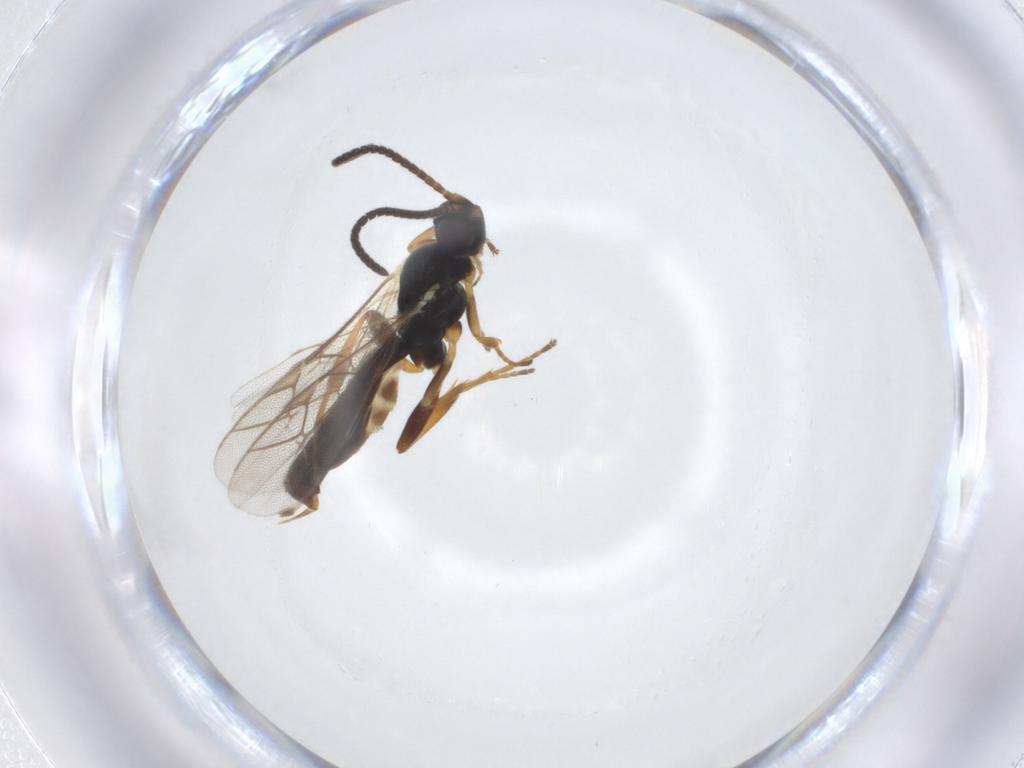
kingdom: Animalia
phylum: Arthropoda
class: Insecta
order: Hymenoptera
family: Ichneumonidae
